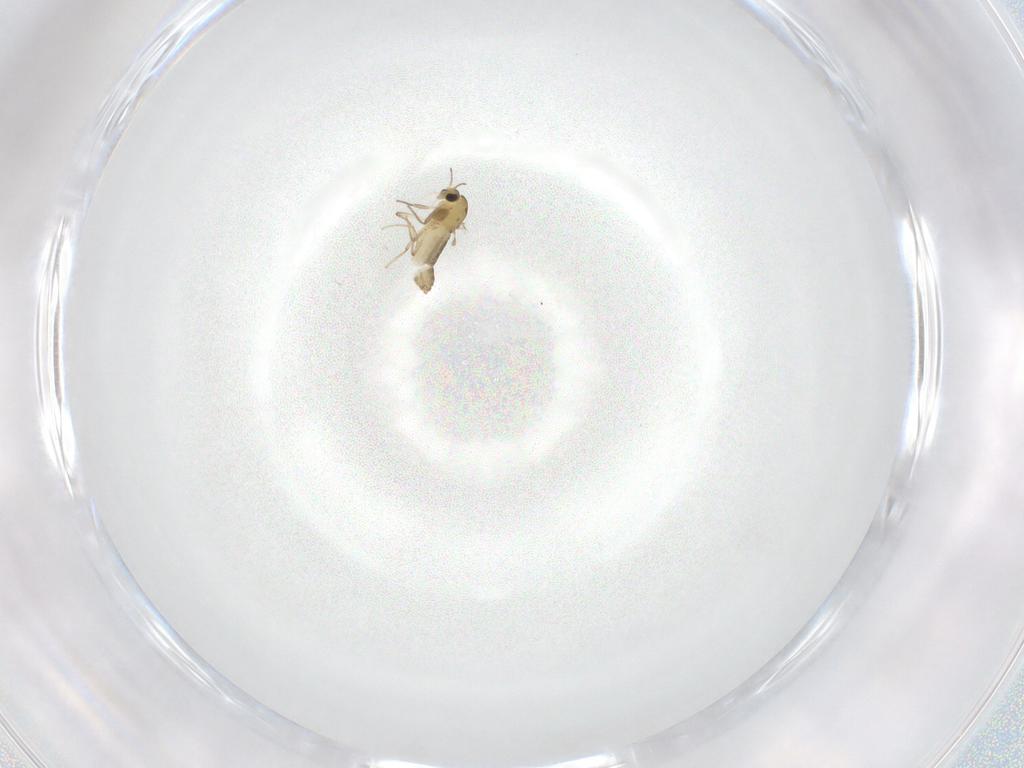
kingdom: Animalia
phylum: Arthropoda
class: Insecta
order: Diptera
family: Chironomidae
